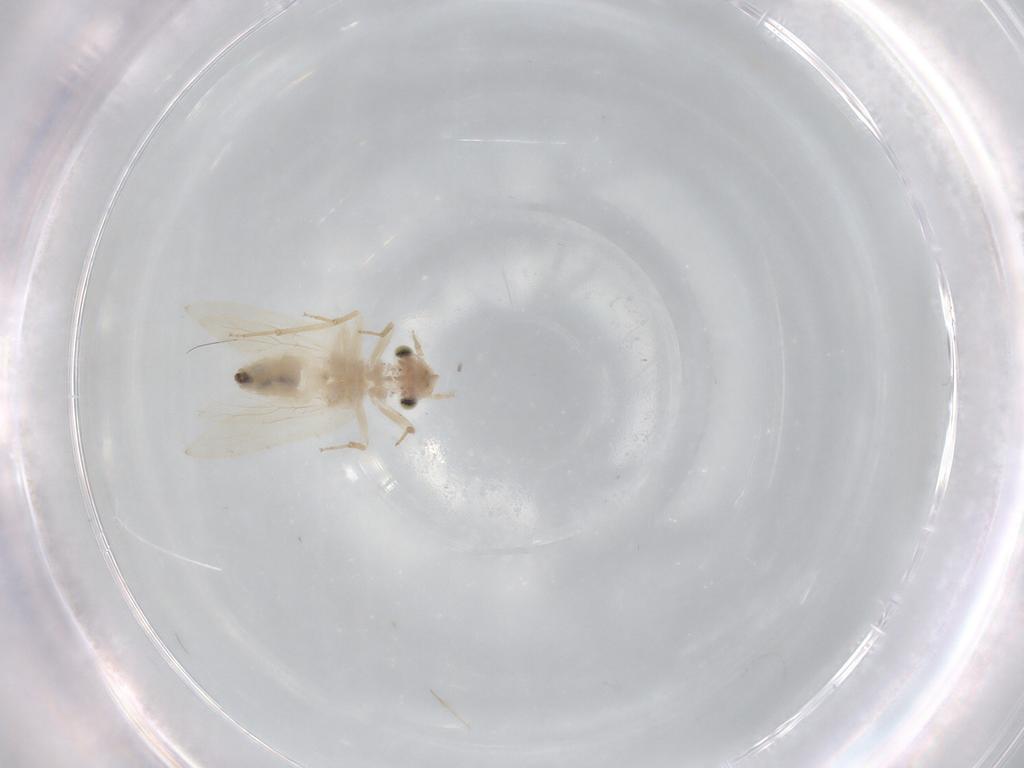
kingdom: Animalia
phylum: Arthropoda
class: Insecta
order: Psocodea
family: Lepidopsocidae
